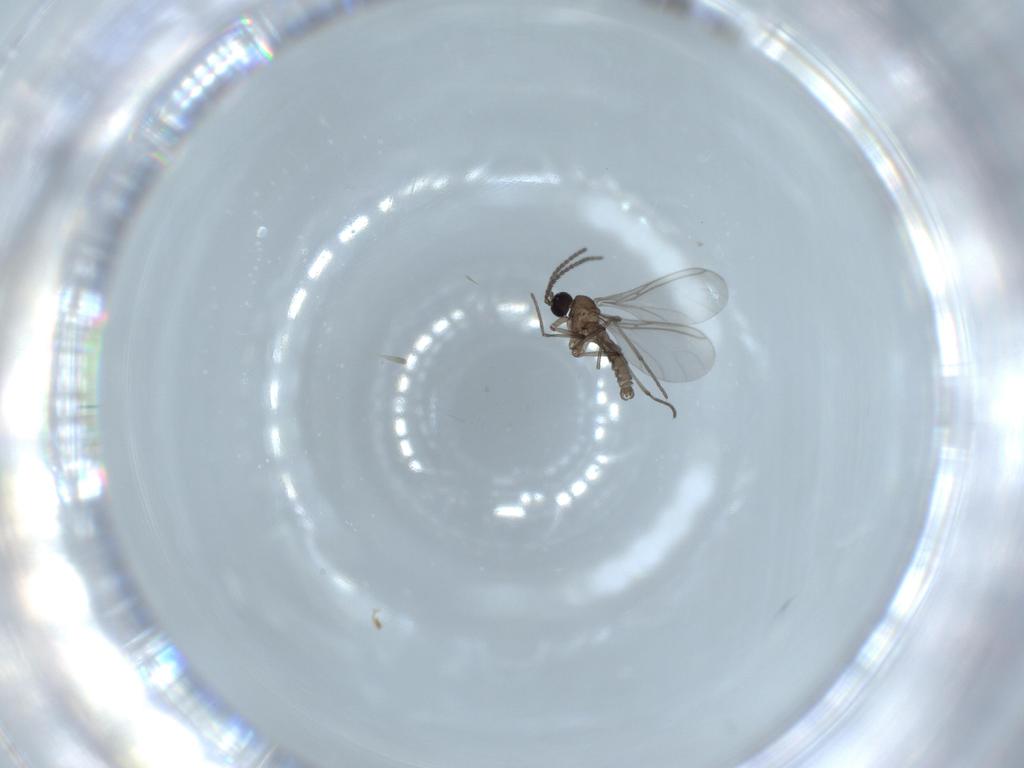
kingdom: Animalia
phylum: Arthropoda
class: Insecta
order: Diptera
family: Sciaridae
